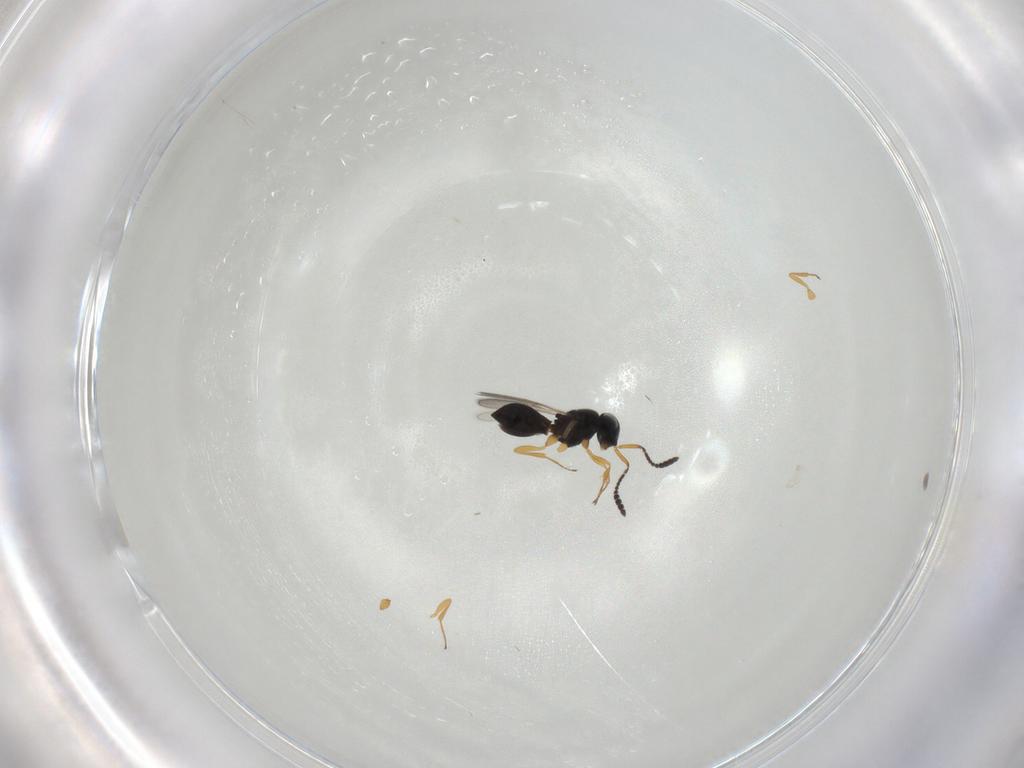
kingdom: Animalia
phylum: Arthropoda
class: Insecta
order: Hymenoptera
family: Scelionidae
